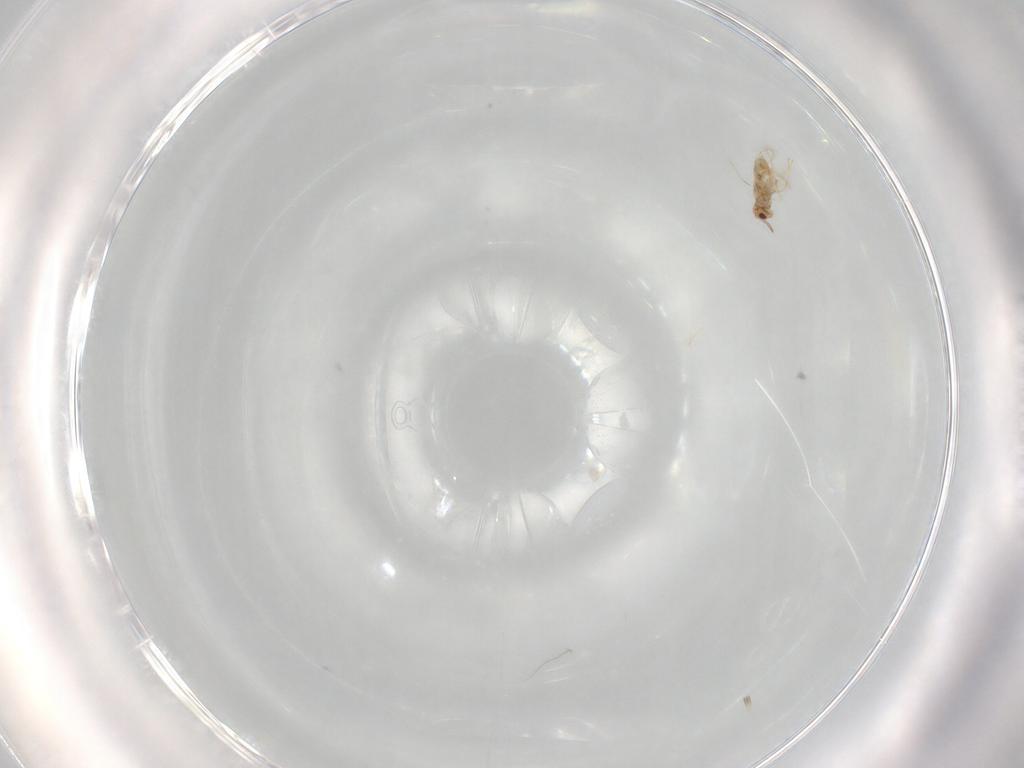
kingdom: Animalia
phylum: Arthropoda
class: Insecta
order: Hymenoptera
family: Aphelinidae
